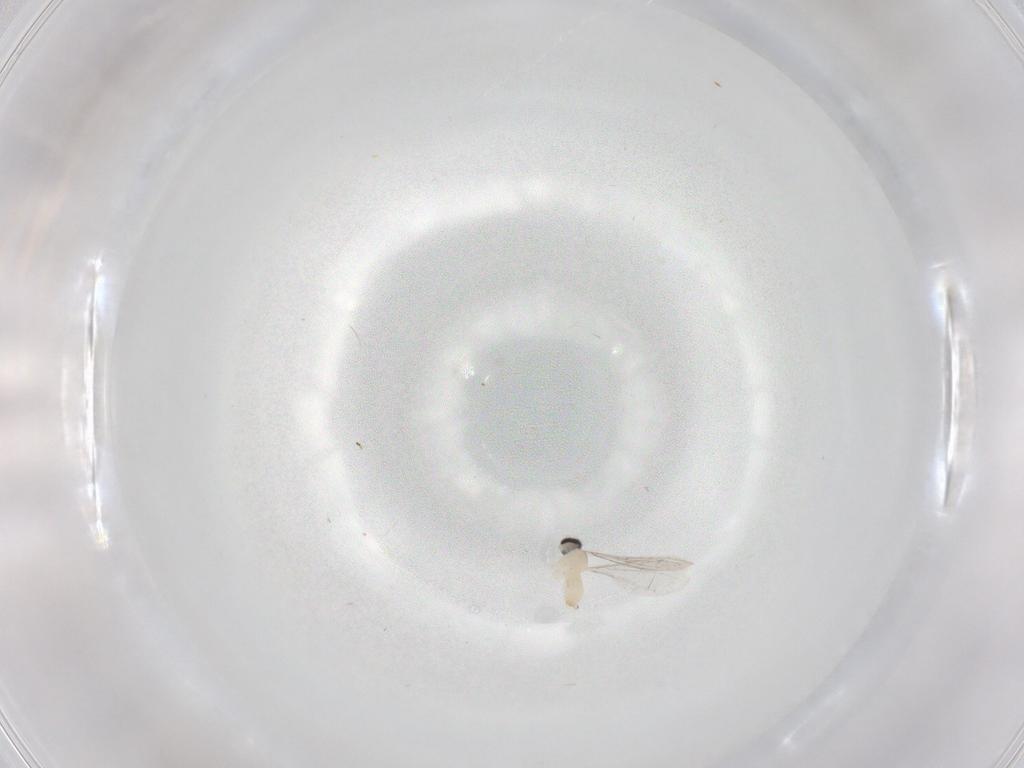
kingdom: Animalia
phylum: Arthropoda
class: Insecta
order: Diptera
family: Cecidomyiidae
